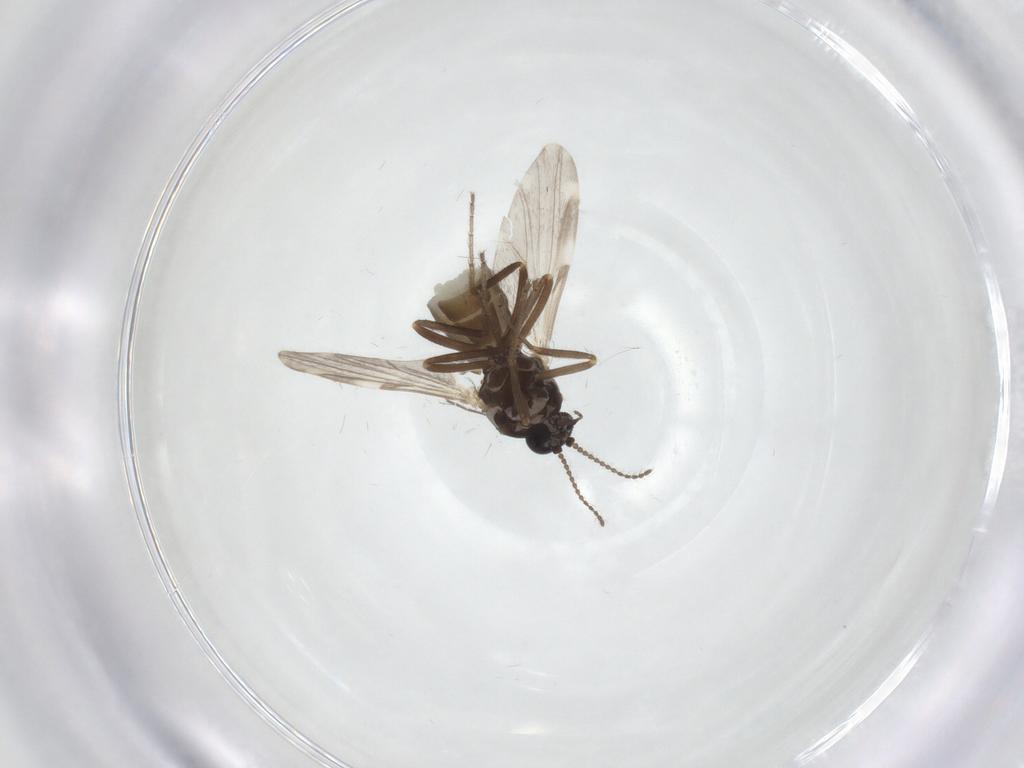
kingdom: Animalia
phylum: Arthropoda
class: Insecta
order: Diptera
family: Ceratopogonidae
